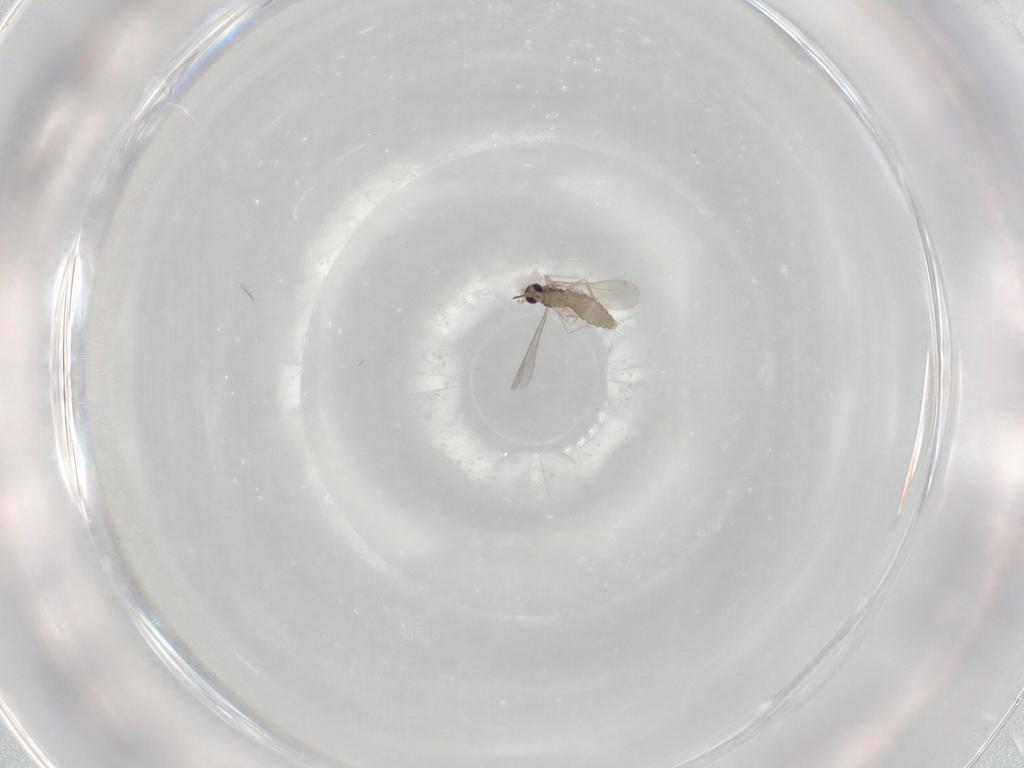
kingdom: Animalia
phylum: Arthropoda
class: Insecta
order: Diptera
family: Psychodidae
